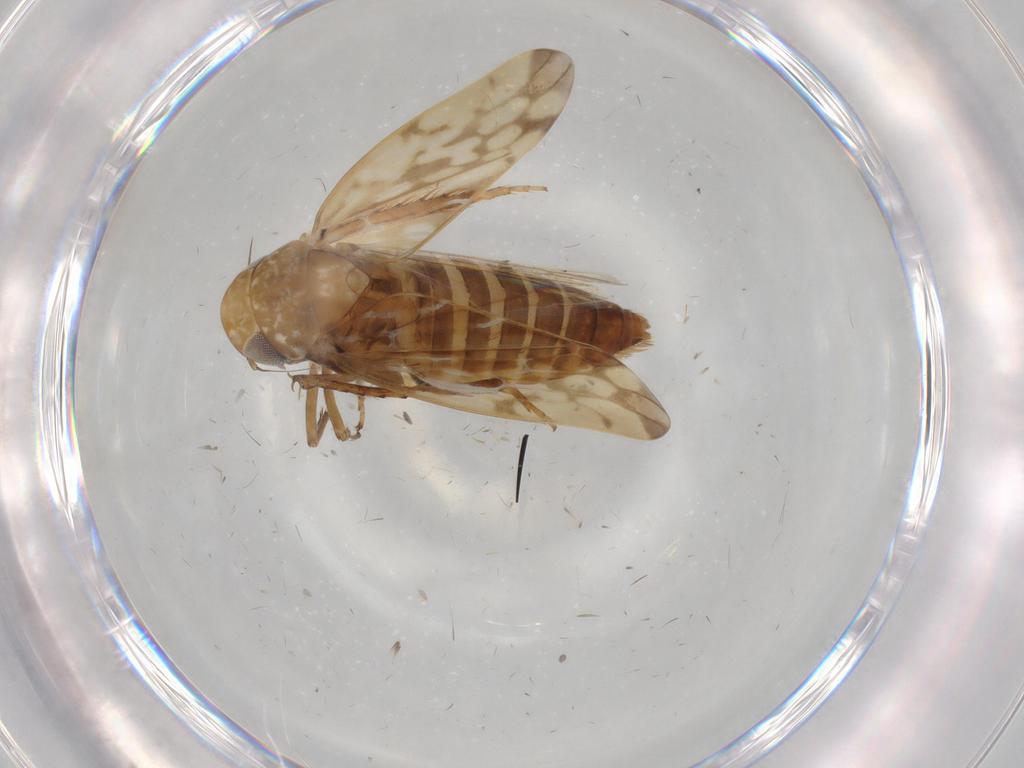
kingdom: Animalia
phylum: Arthropoda
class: Insecta
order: Hemiptera
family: Cicadellidae
